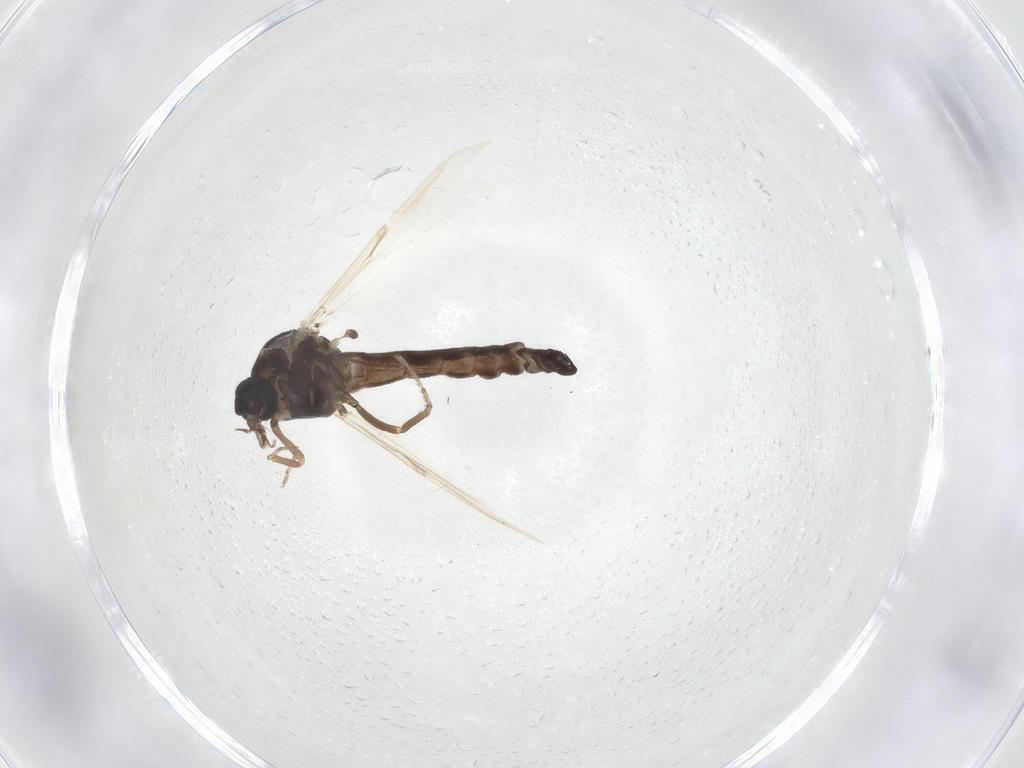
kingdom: Animalia
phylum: Arthropoda
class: Insecta
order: Diptera
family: Ceratopogonidae
